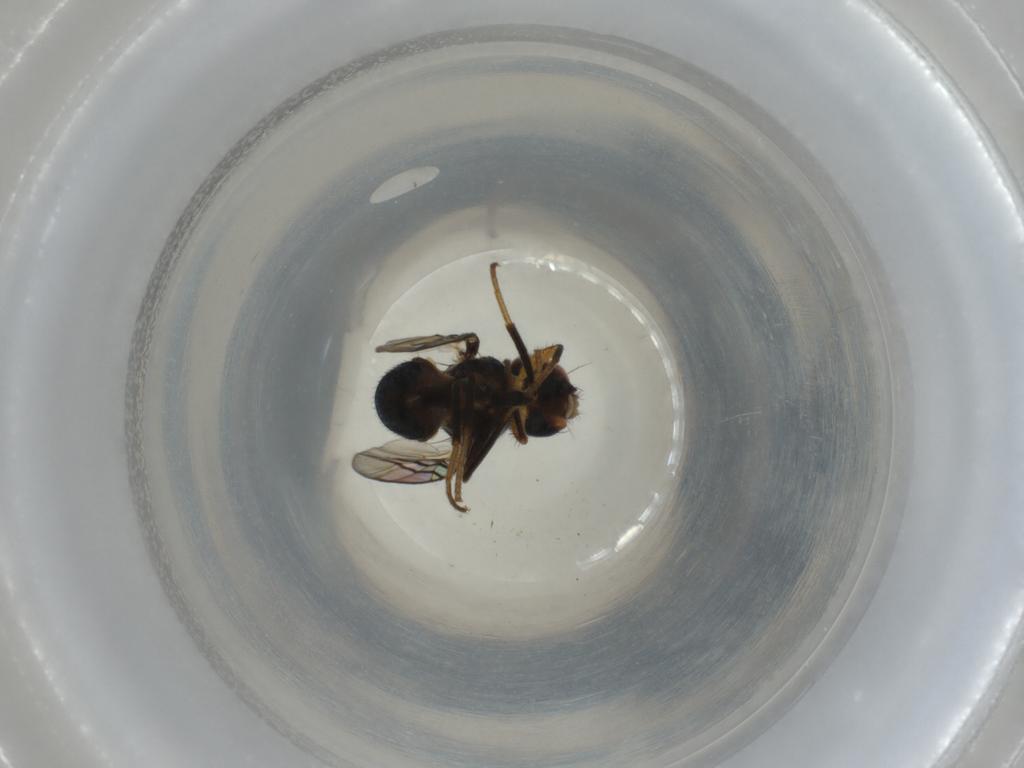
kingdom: Animalia
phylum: Arthropoda
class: Insecta
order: Diptera
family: Platystomatidae
